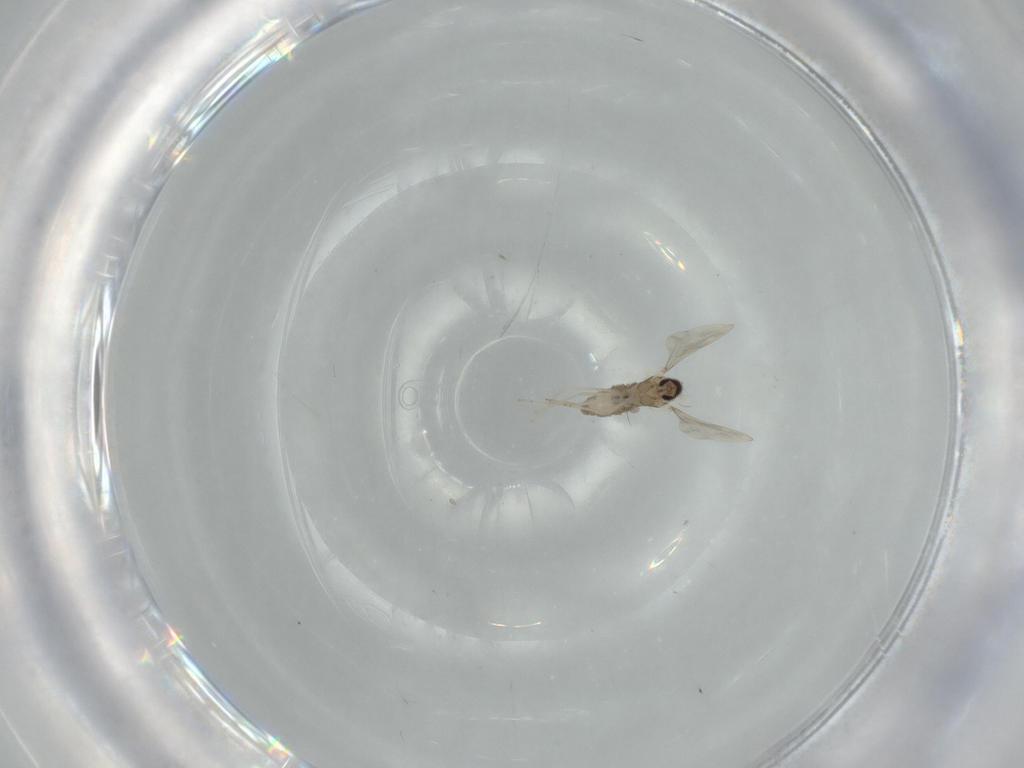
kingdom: Animalia
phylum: Arthropoda
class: Insecta
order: Diptera
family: Cecidomyiidae
